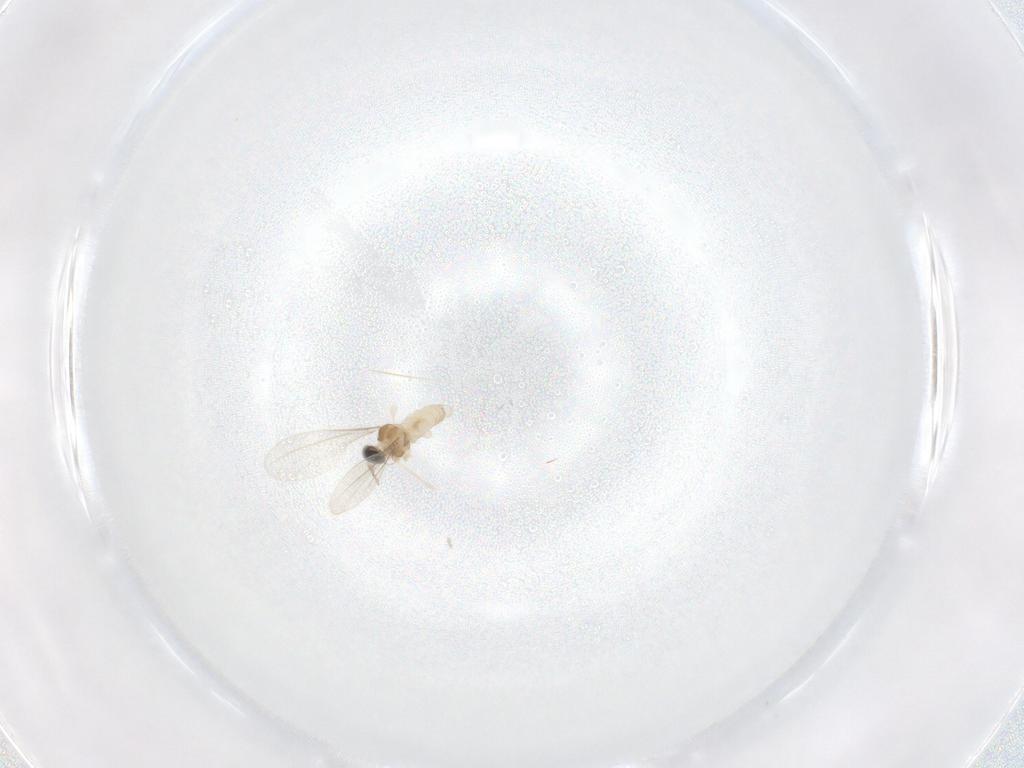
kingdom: Animalia
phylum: Arthropoda
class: Insecta
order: Diptera
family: Cecidomyiidae
